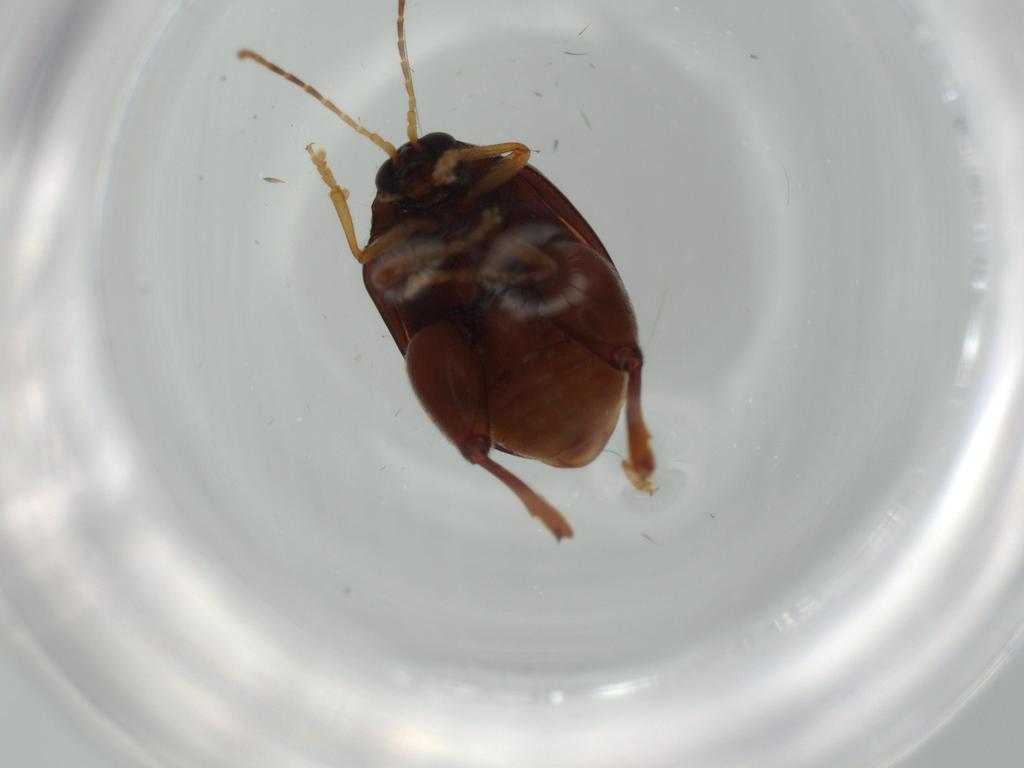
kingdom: Animalia
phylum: Arthropoda
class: Insecta
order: Coleoptera
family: Chrysomelidae
